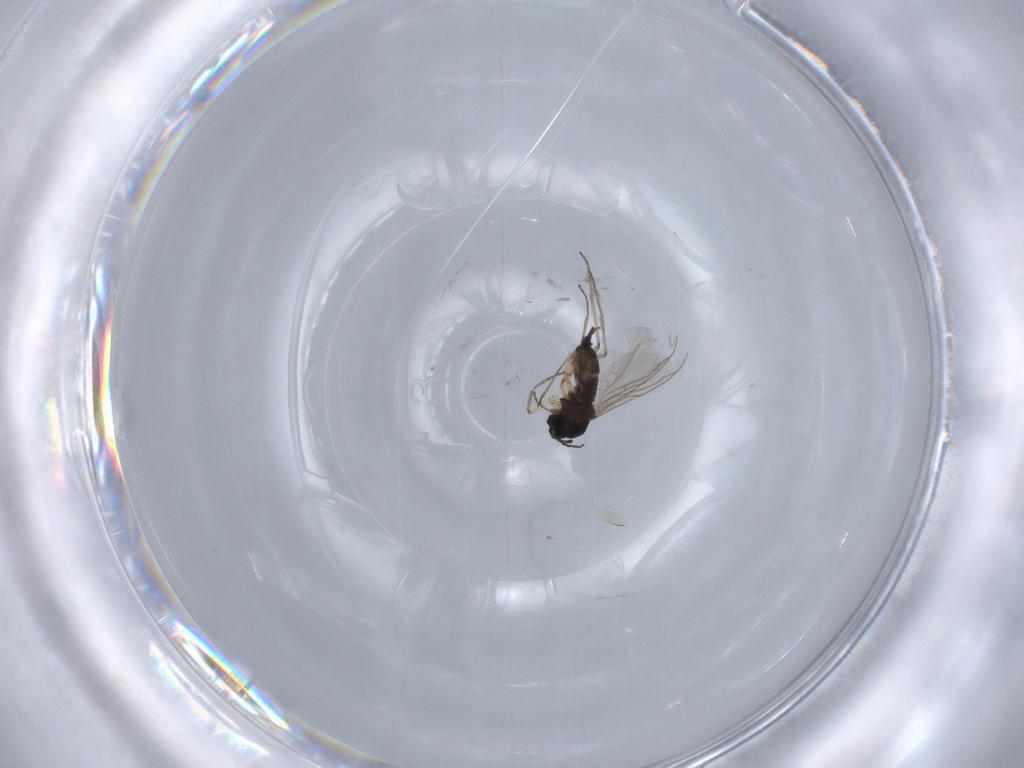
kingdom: Animalia
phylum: Arthropoda
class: Insecta
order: Diptera
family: Sciaridae
